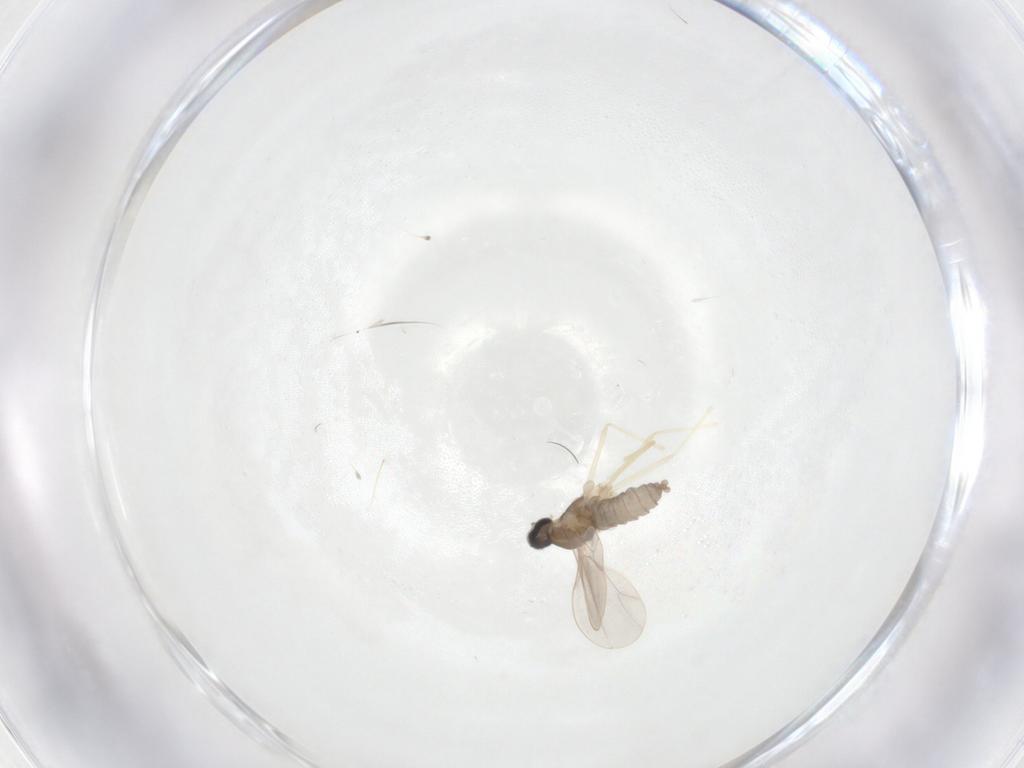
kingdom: Animalia
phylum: Arthropoda
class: Insecta
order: Diptera
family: Cecidomyiidae
